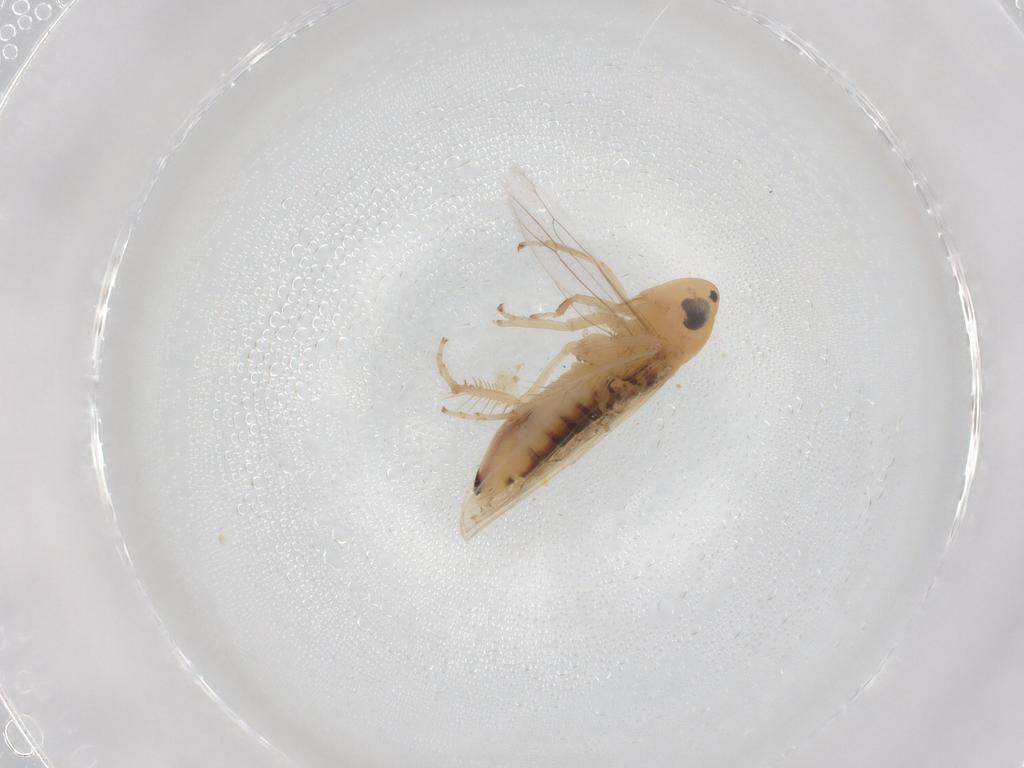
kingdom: Animalia
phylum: Arthropoda
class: Insecta
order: Hemiptera
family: Cicadellidae
